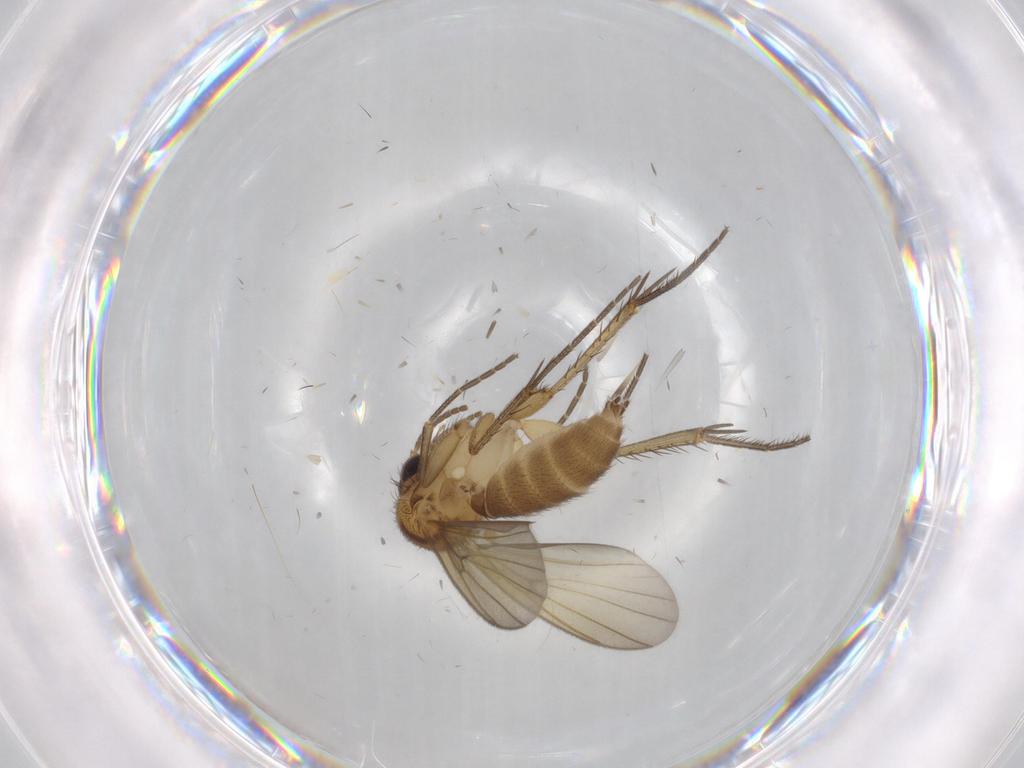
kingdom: Animalia
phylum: Arthropoda
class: Insecta
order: Diptera
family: Mycetophilidae
